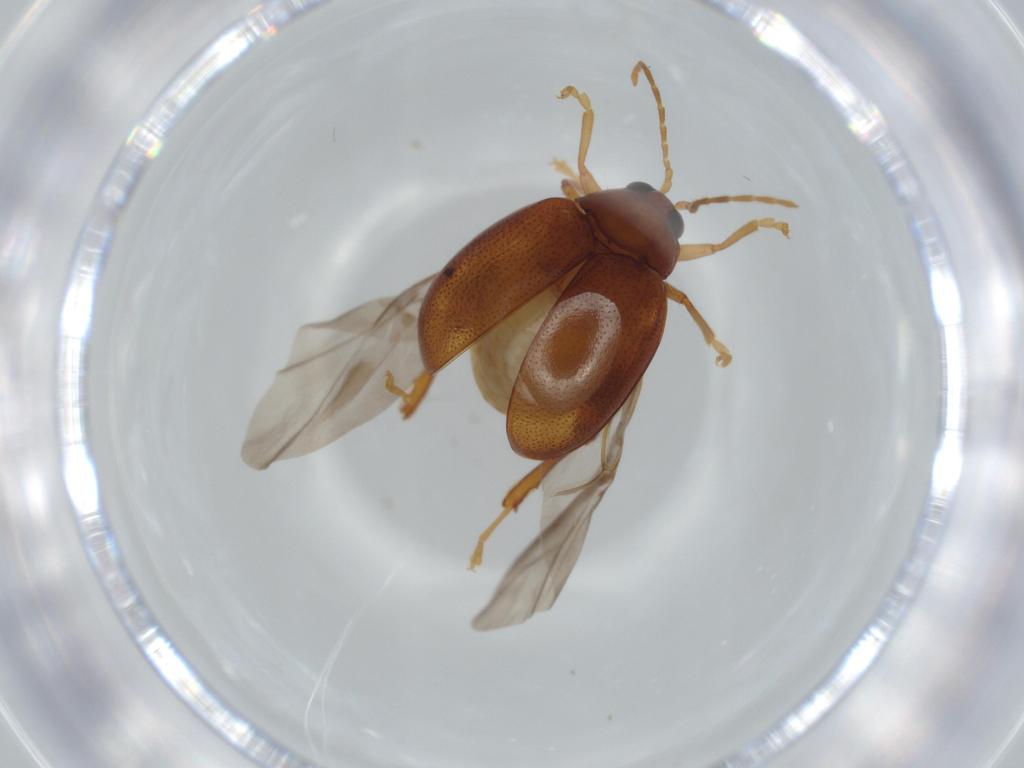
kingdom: Animalia
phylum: Arthropoda
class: Insecta
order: Coleoptera
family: Chrysomelidae
